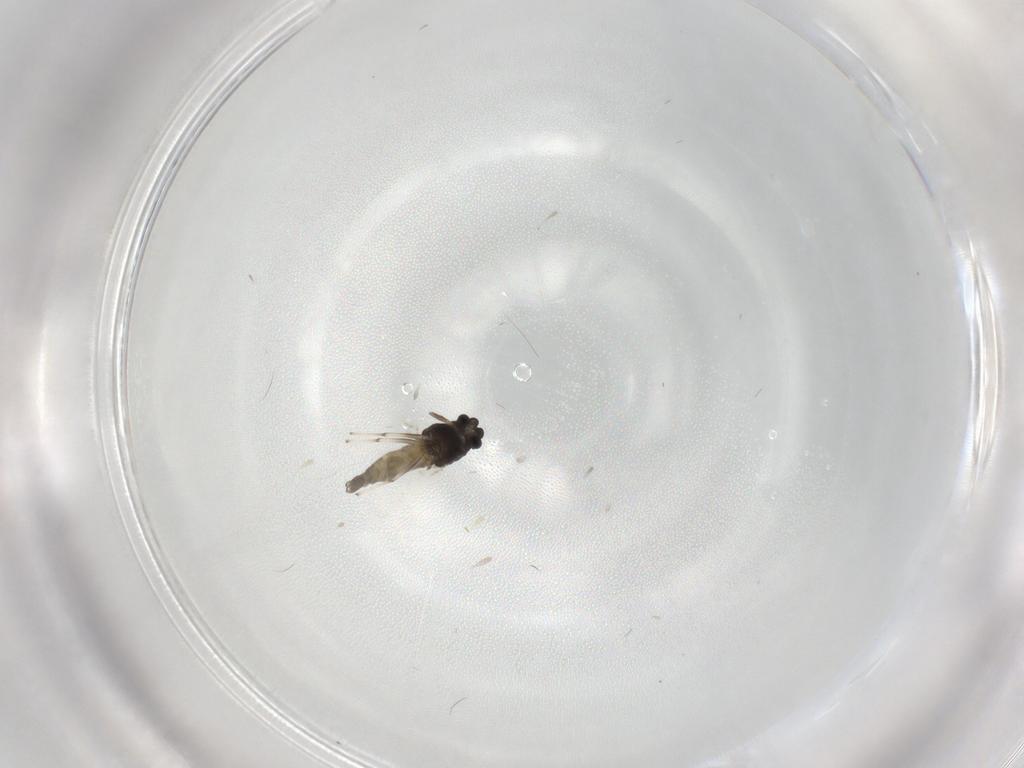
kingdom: Animalia
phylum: Arthropoda
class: Insecta
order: Diptera
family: Chironomidae
